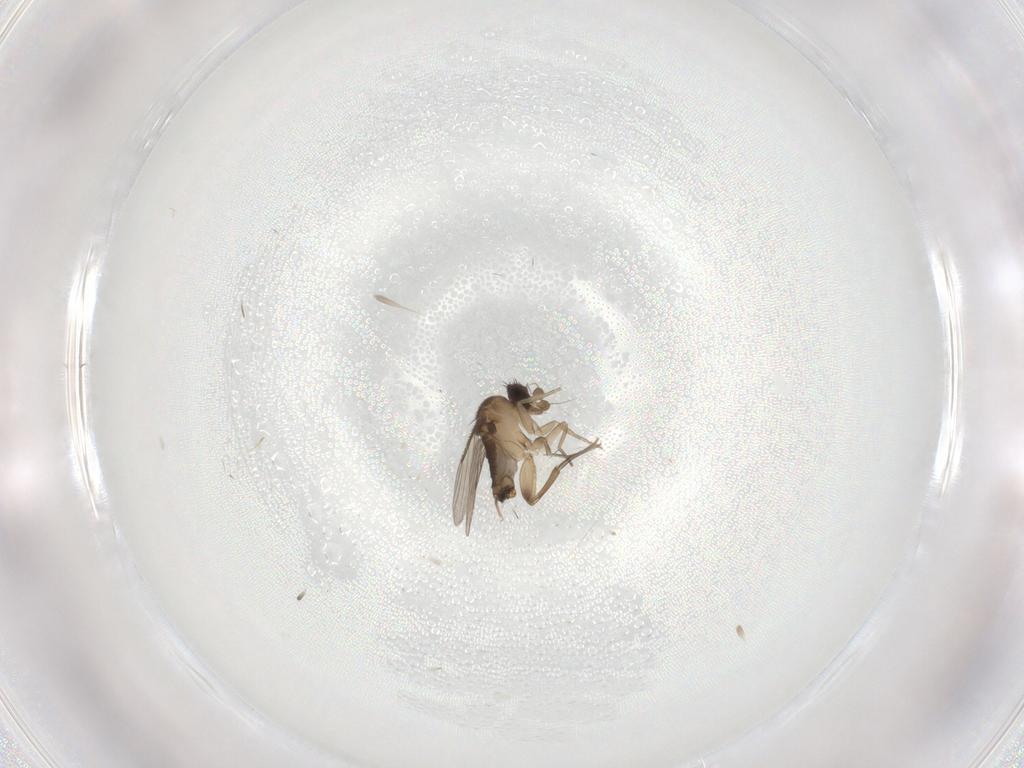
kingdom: Animalia
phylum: Arthropoda
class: Insecta
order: Diptera
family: Phoridae
